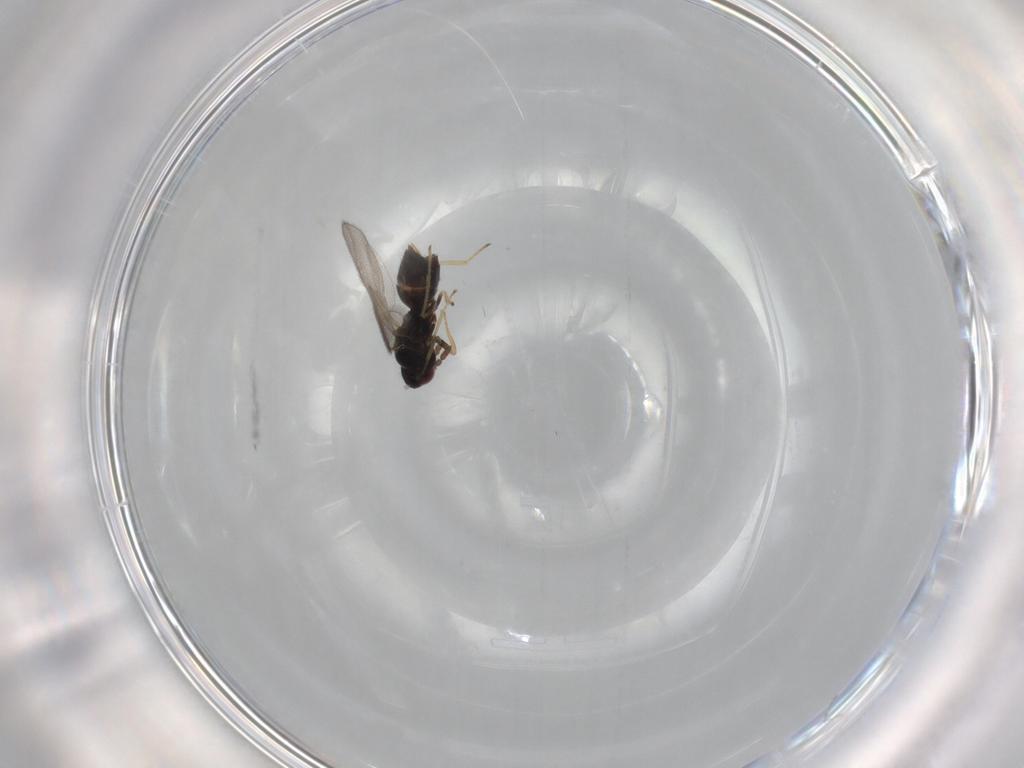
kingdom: Animalia
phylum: Arthropoda
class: Insecta
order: Hymenoptera
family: Eulophidae
